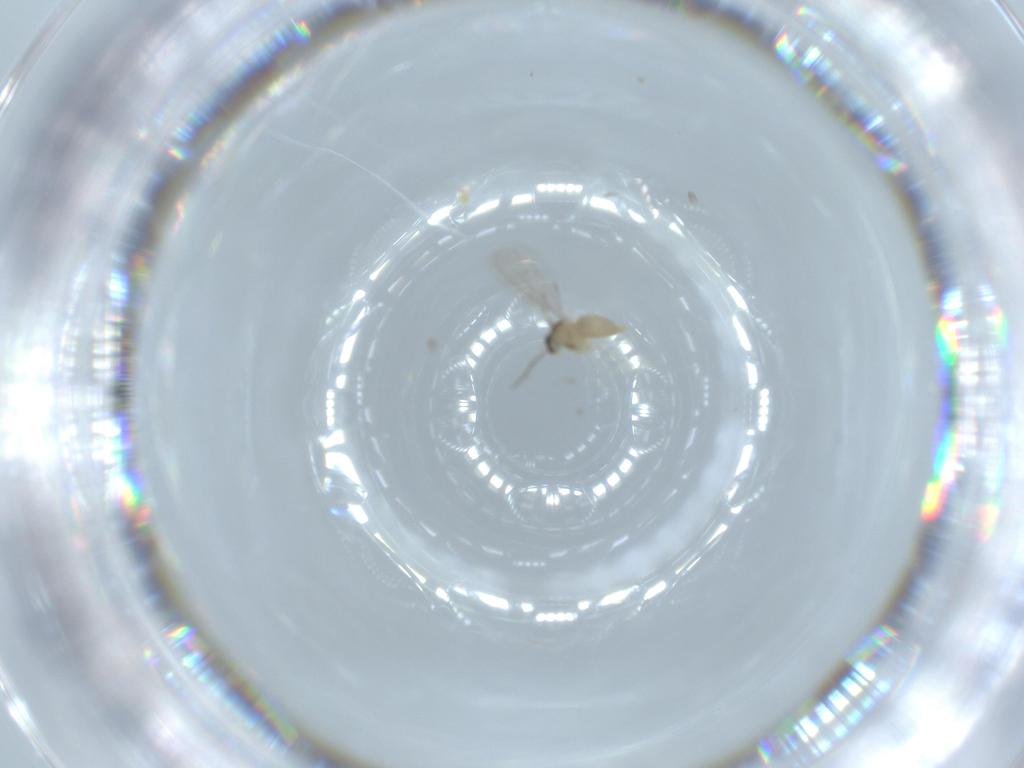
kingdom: Animalia
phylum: Arthropoda
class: Insecta
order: Diptera
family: Cecidomyiidae
